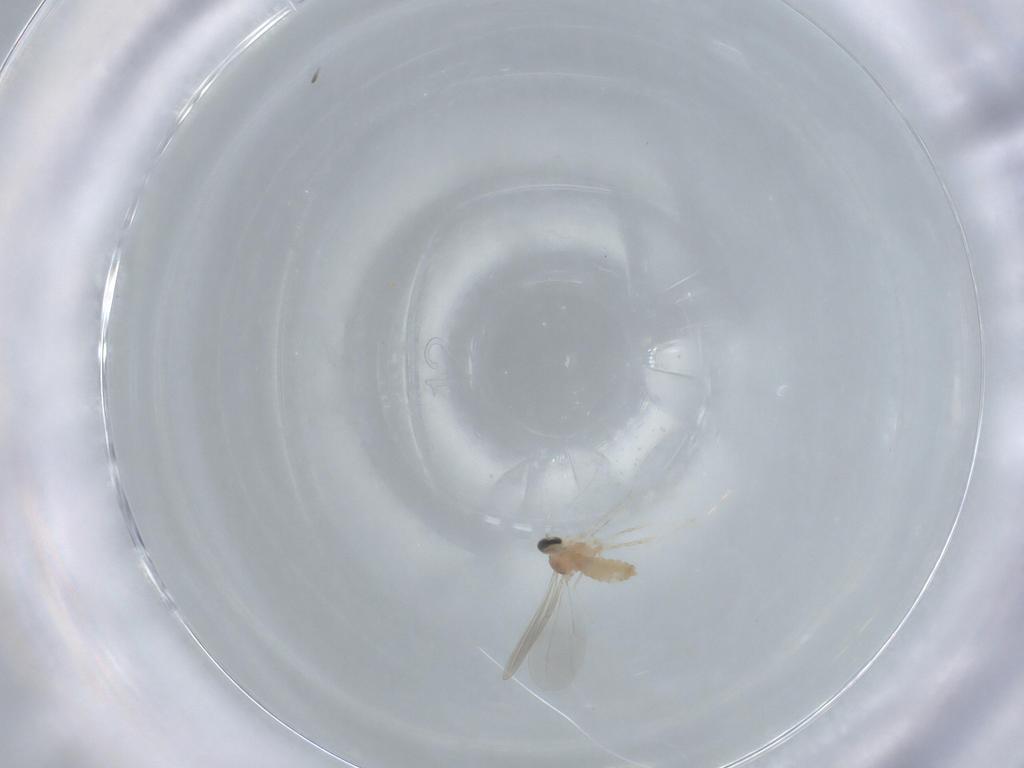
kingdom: Animalia
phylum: Arthropoda
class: Insecta
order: Diptera
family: Cecidomyiidae
